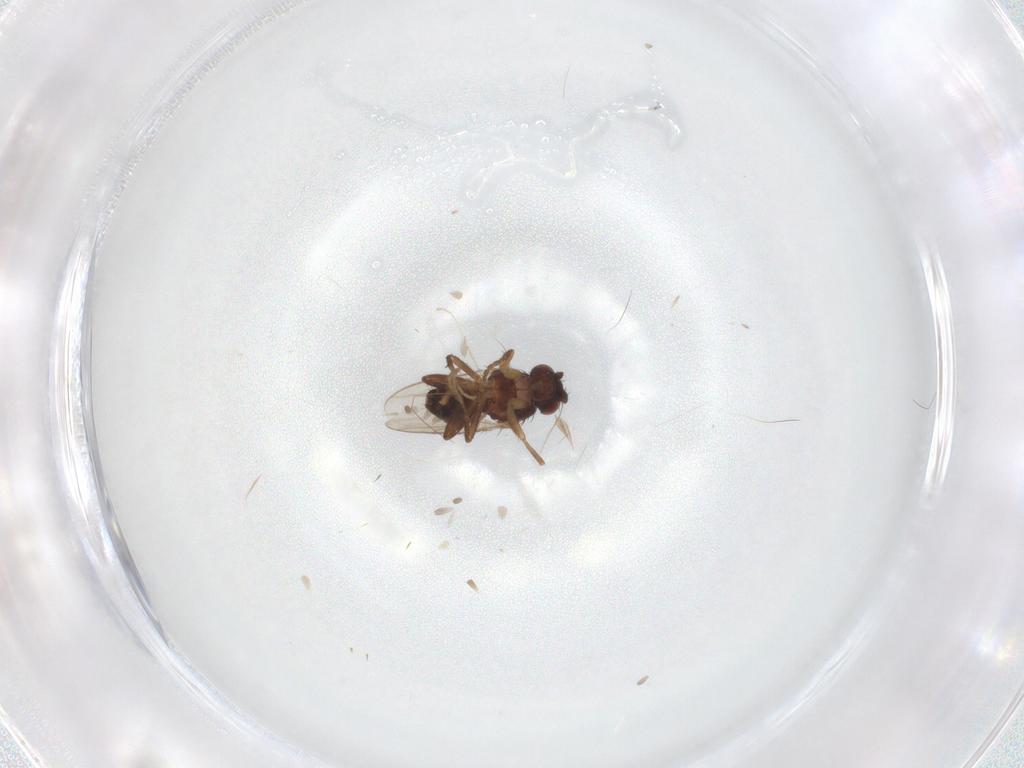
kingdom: Animalia
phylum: Arthropoda
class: Insecta
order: Diptera
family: Sphaeroceridae
